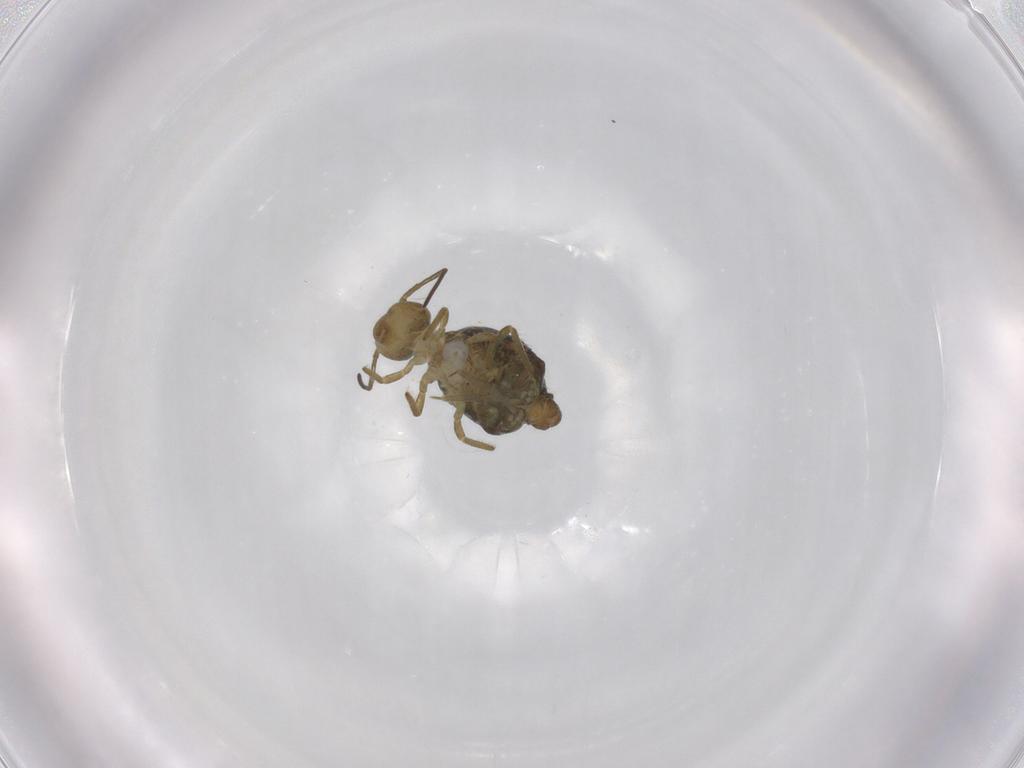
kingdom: Animalia
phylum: Arthropoda
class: Collembola
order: Symphypleona
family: Sminthuridae
